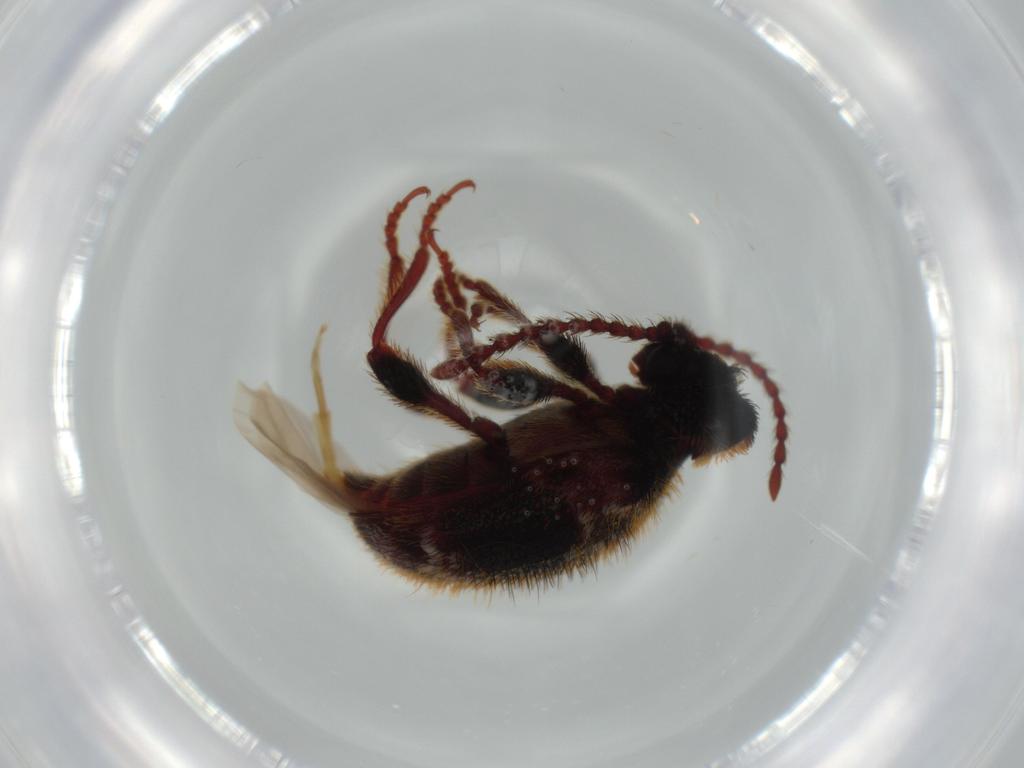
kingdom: Animalia
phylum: Arthropoda
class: Insecta
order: Coleoptera
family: Ptinidae
